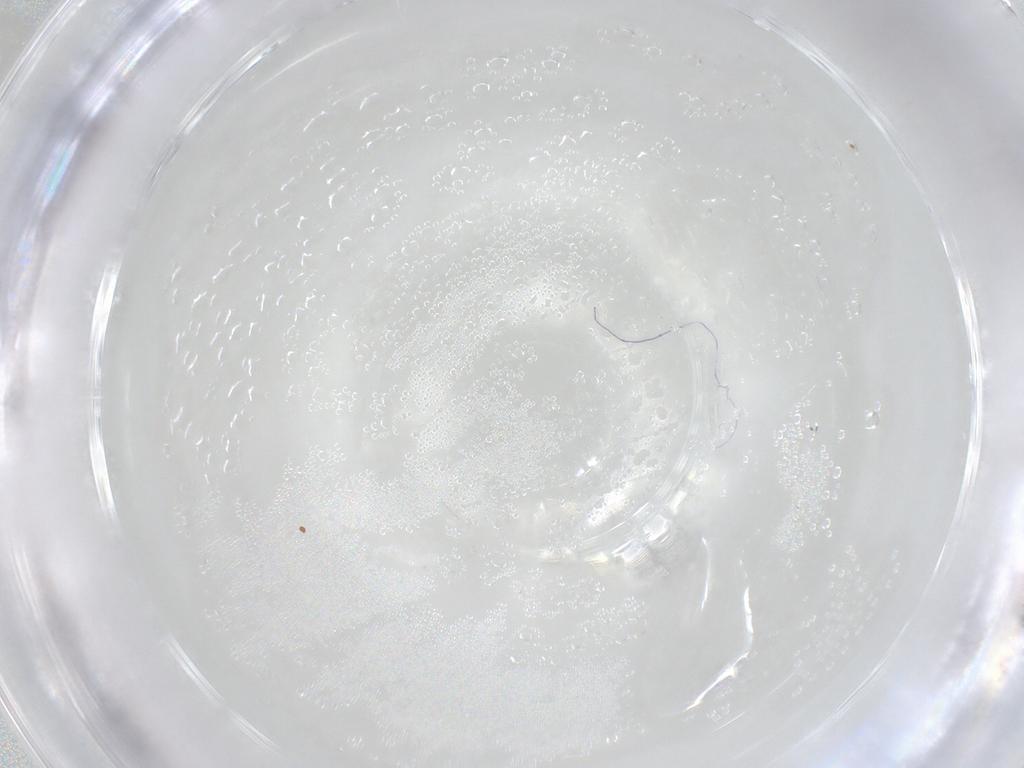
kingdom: Animalia
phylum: Arthropoda
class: Arachnida
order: Trombidiformes
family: Erythraeidae
